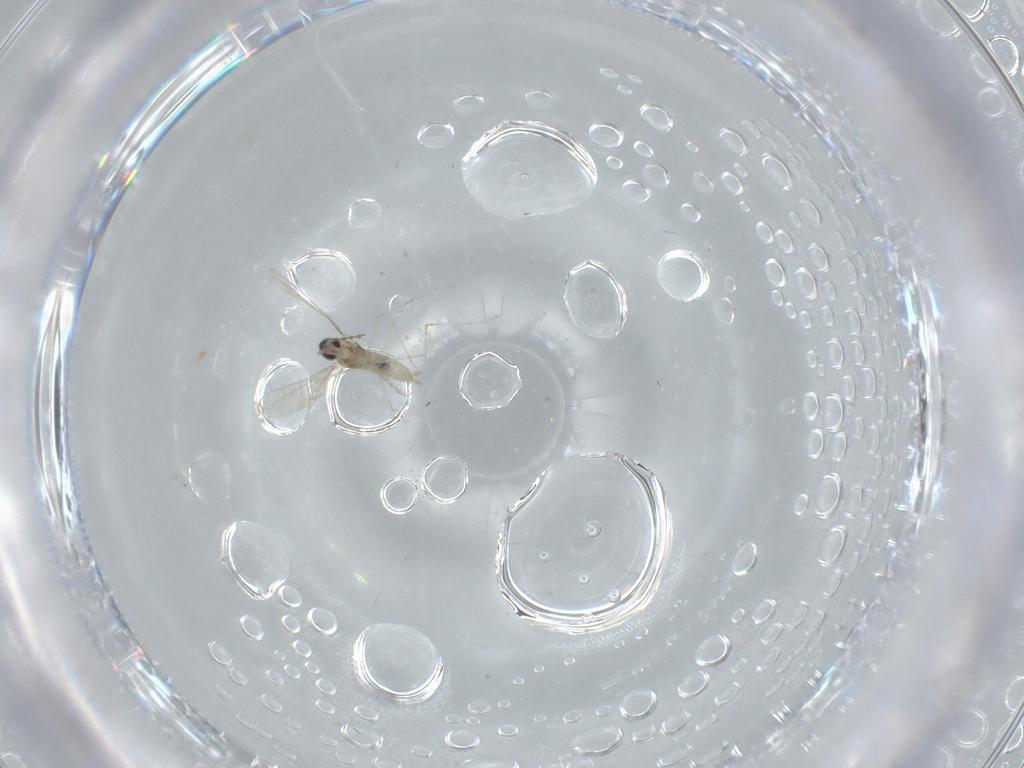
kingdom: Animalia
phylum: Arthropoda
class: Insecta
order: Diptera
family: Cecidomyiidae
